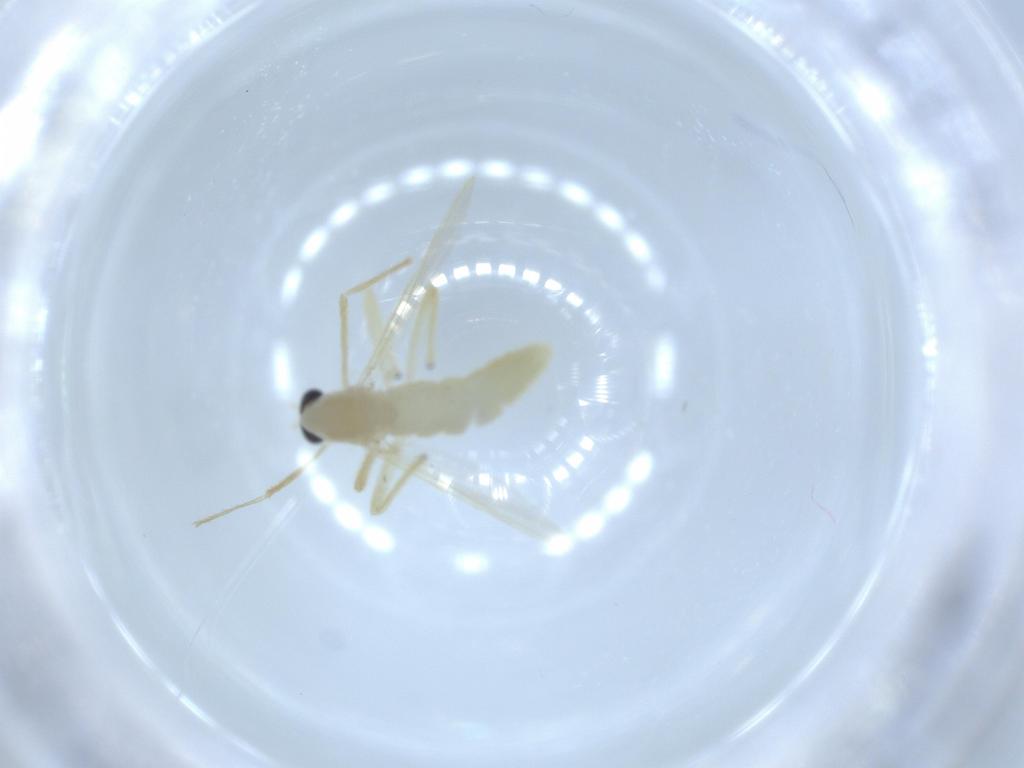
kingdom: Animalia
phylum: Arthropoda
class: Insecta
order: Diptera
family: Chironomidae
